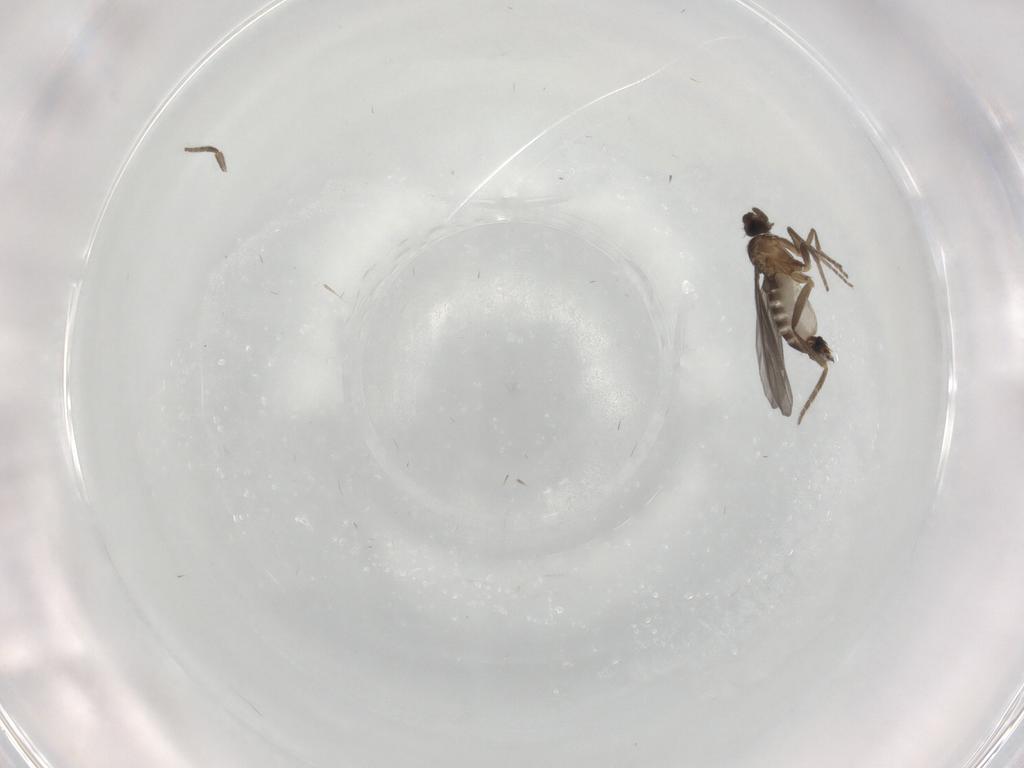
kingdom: Animalia
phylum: Arthropoda
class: Insecta
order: Diptera
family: Phoridae
